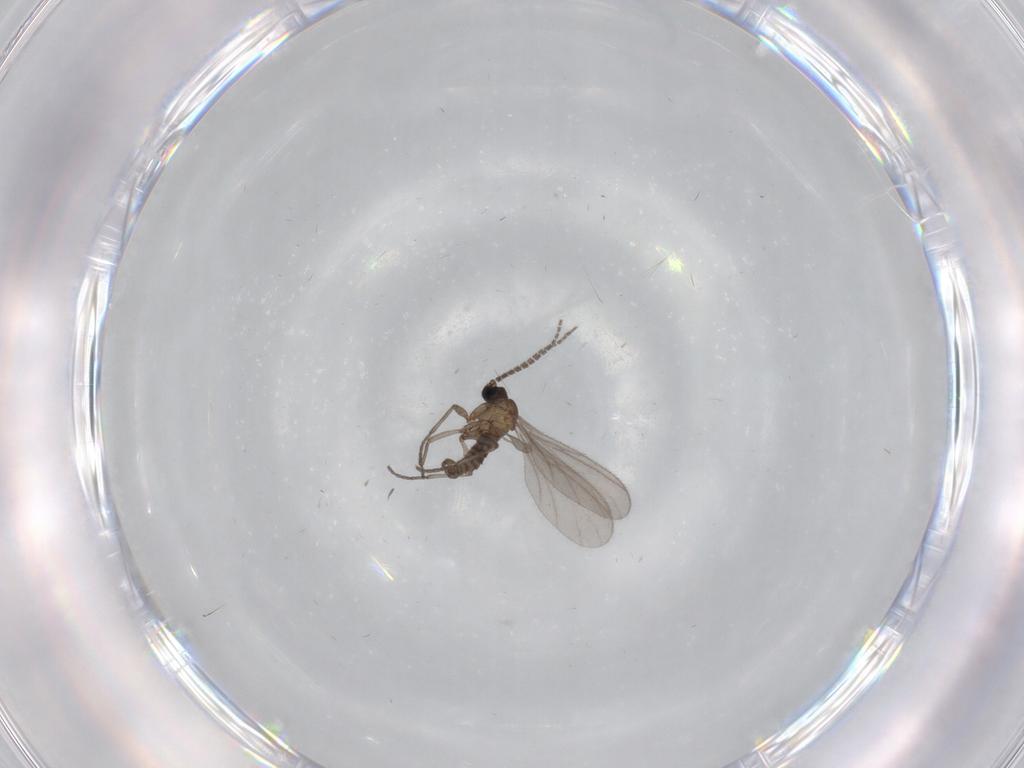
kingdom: Animalia
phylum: Arthropoda
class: Insecta
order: Diptera
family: Sciaridae
